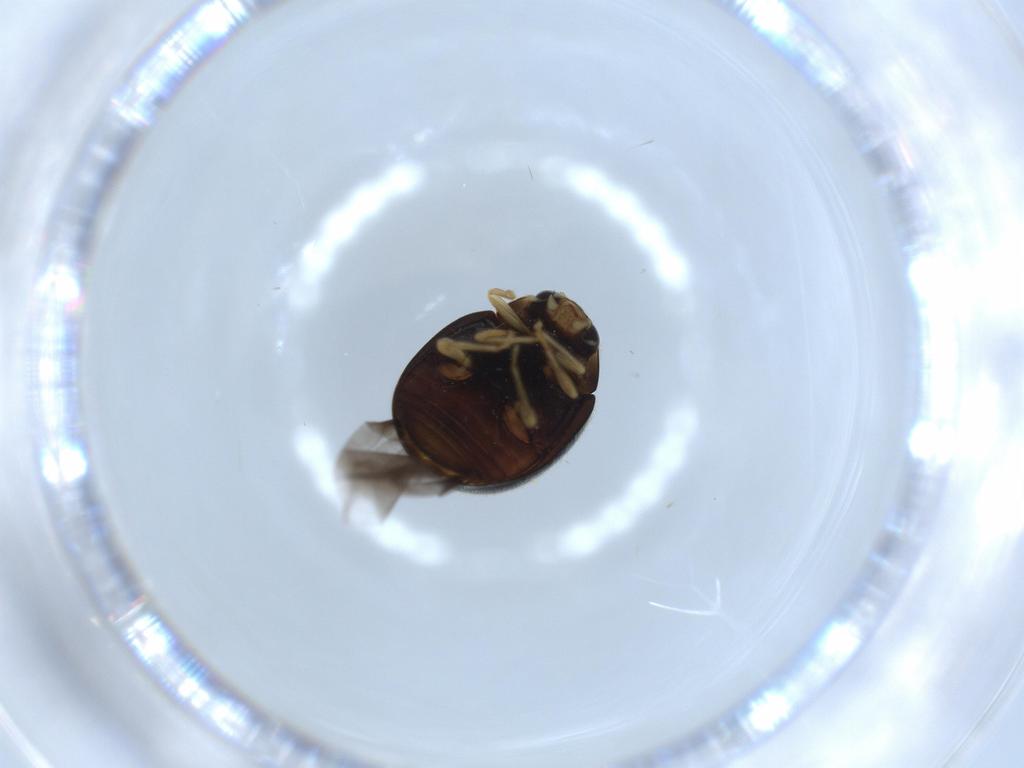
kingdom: Animalia
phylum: Arthropoda
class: Insecta
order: Coleoptera
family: Coccinellidae
